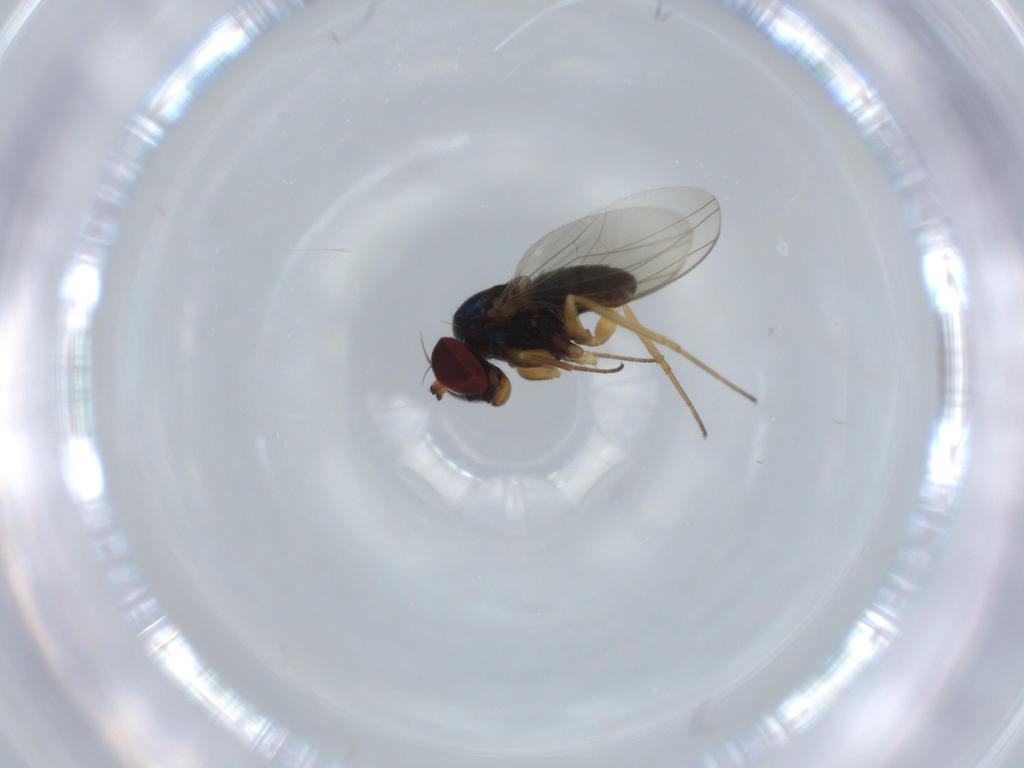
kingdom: Animalia
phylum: Arthropoda
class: Insecta
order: Diptera
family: Dolichopodidae
